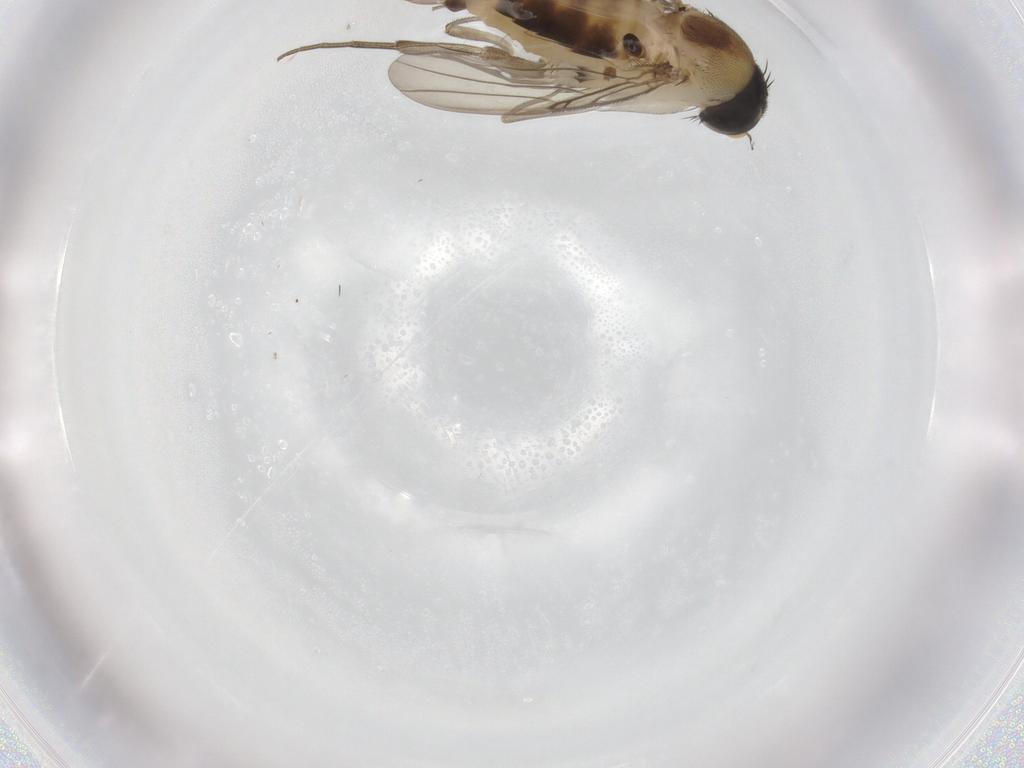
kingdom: Animalia
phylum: Arthropoda
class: Insecta
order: Diptera
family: Phoridae
